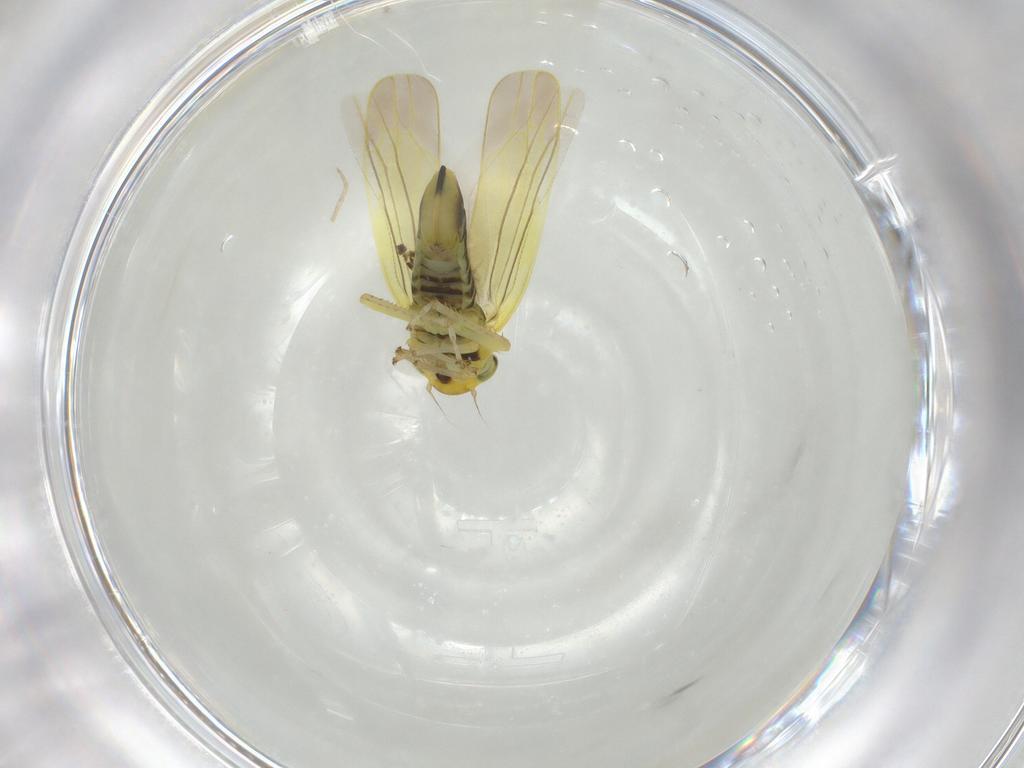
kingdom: Animalia
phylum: Arthropoda
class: Insecta
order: Hemiptera
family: Cicadellidae
